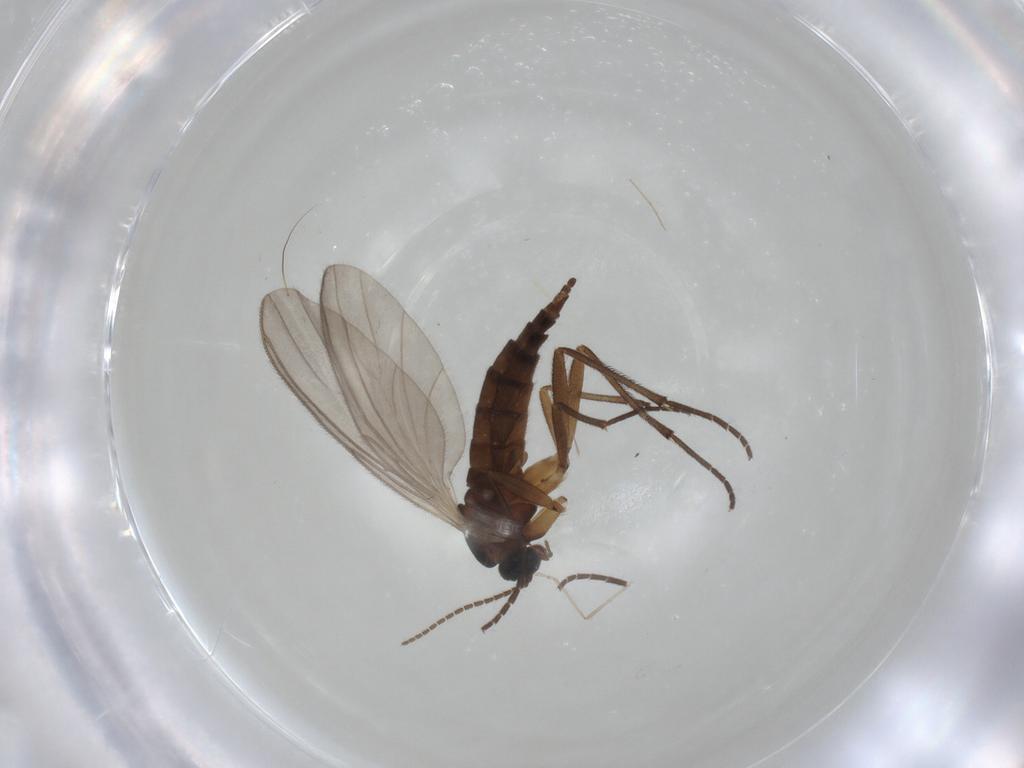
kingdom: Animalia
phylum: Arthropoda
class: Insecta
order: Diptera
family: Sciaridae
